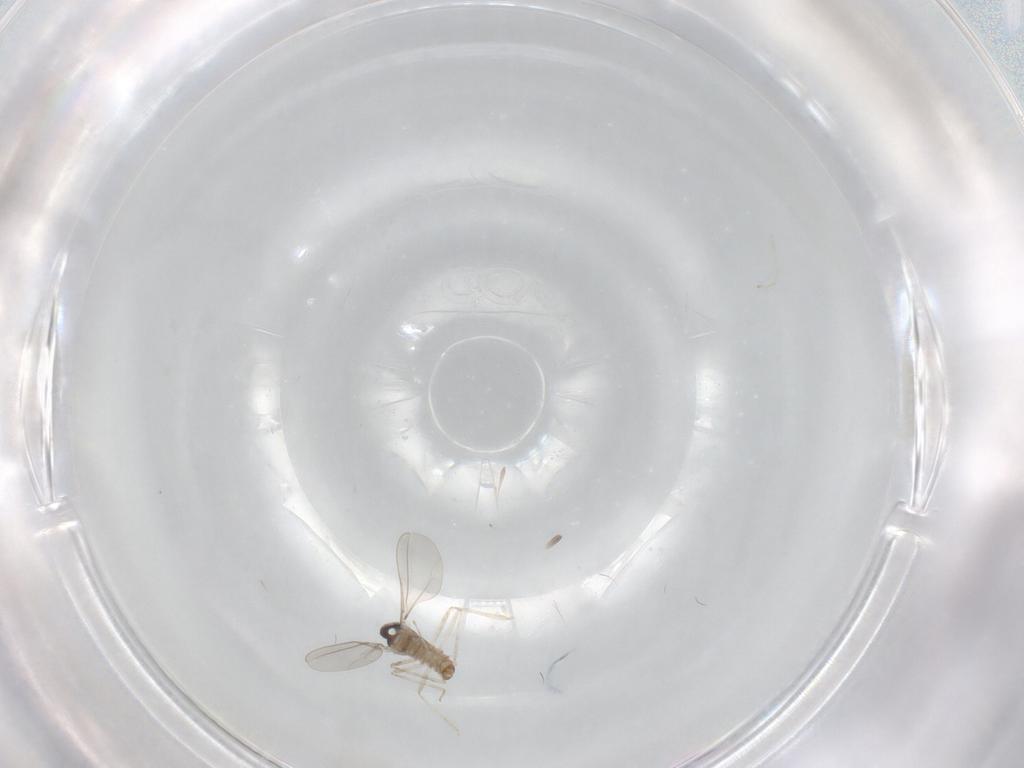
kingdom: Animalia
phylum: Arthropoda
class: Insecta
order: Diptera
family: Cecidomyiidae
